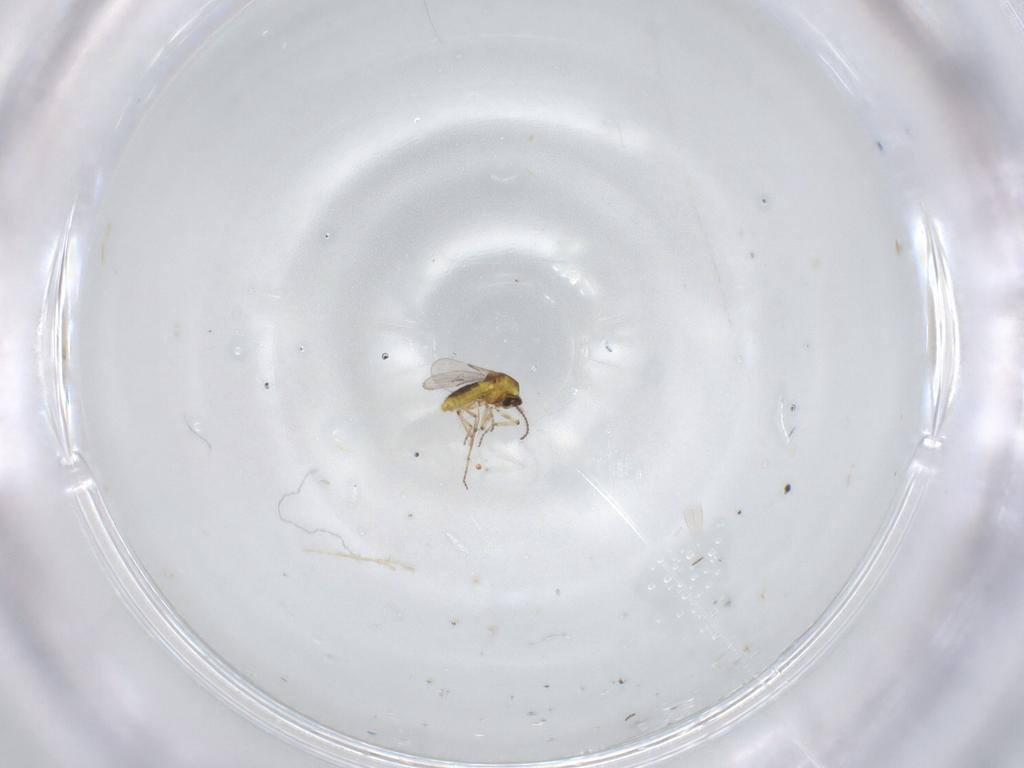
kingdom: Animalia
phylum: Arthropoda
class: Insecta
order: Diptera
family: Ceratopogonidae
